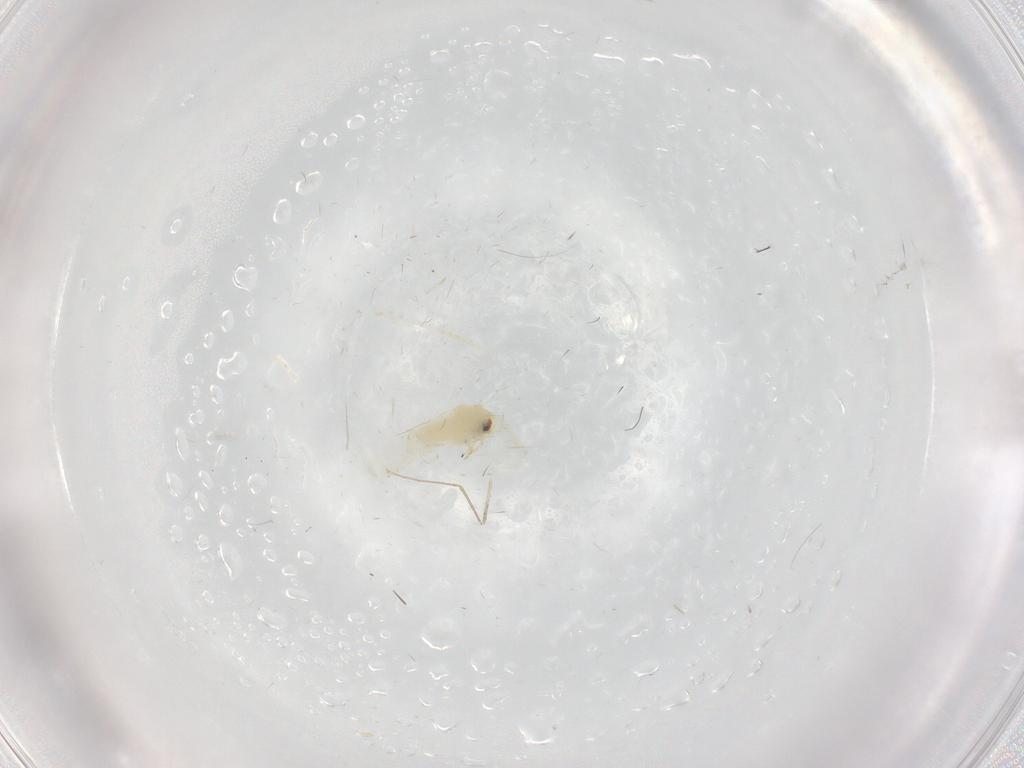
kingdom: Animalia
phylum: Arthropoda
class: Insecta
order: Hemiptera
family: Aleyrodidae
